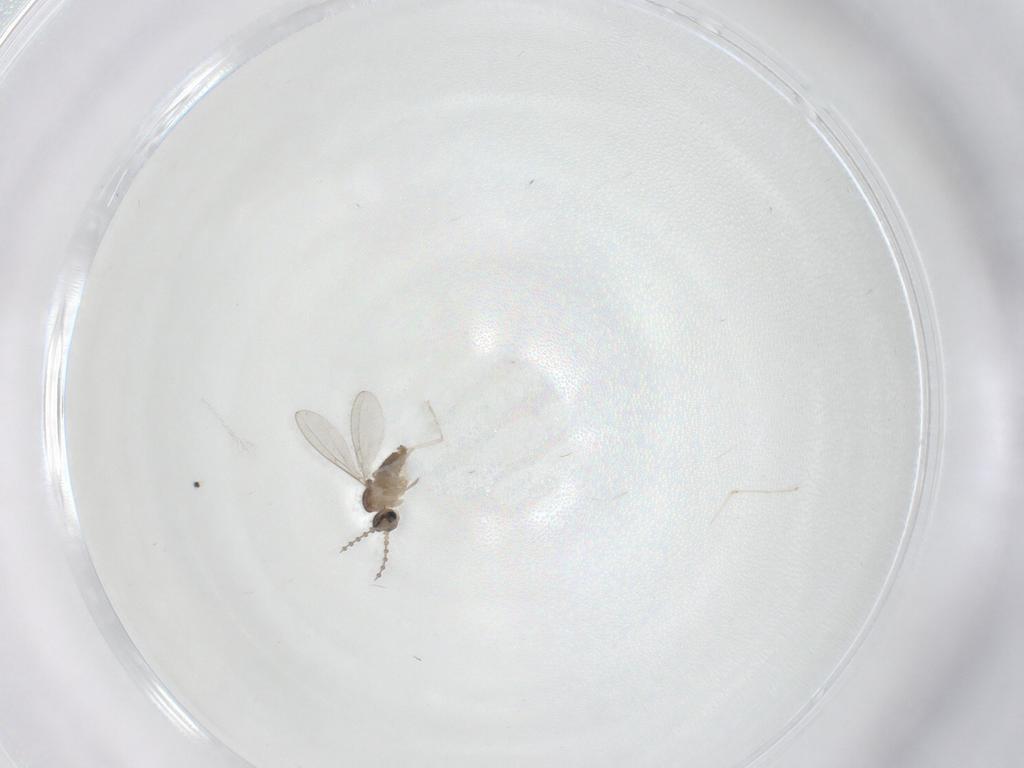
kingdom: Animalia
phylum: Arthropoda
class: Insecta
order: Diptera
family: Cecidomyiidae
